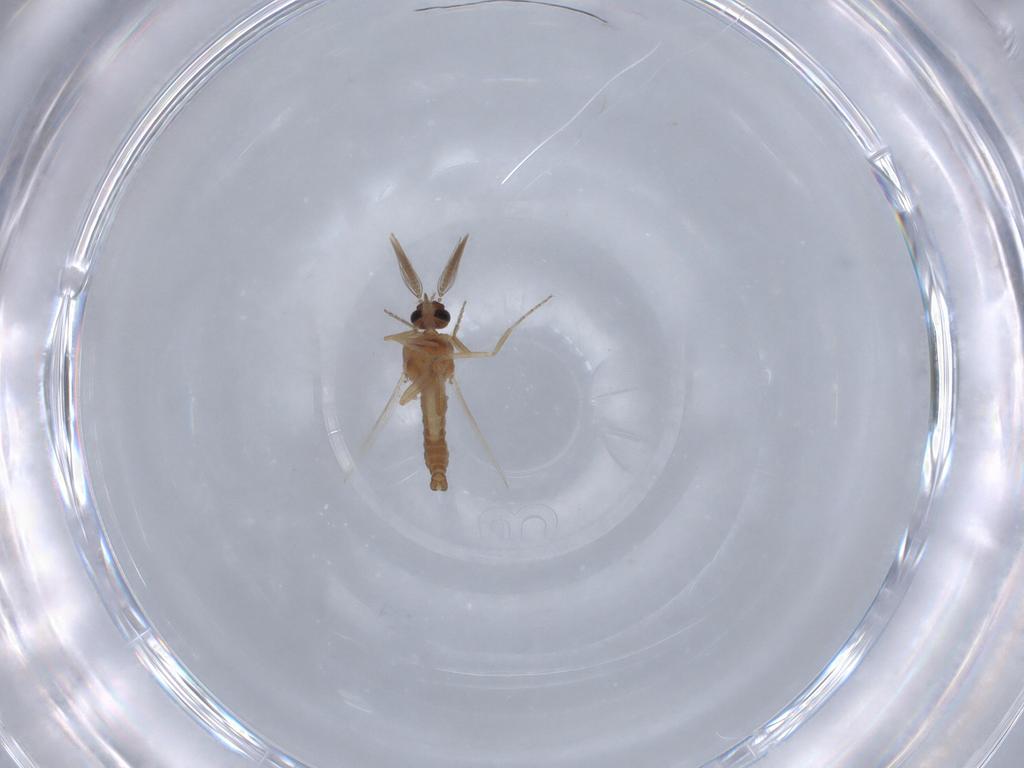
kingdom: Animalia
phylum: Arthropoda
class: Insecta
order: Diptera
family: Ceratopogonidae
